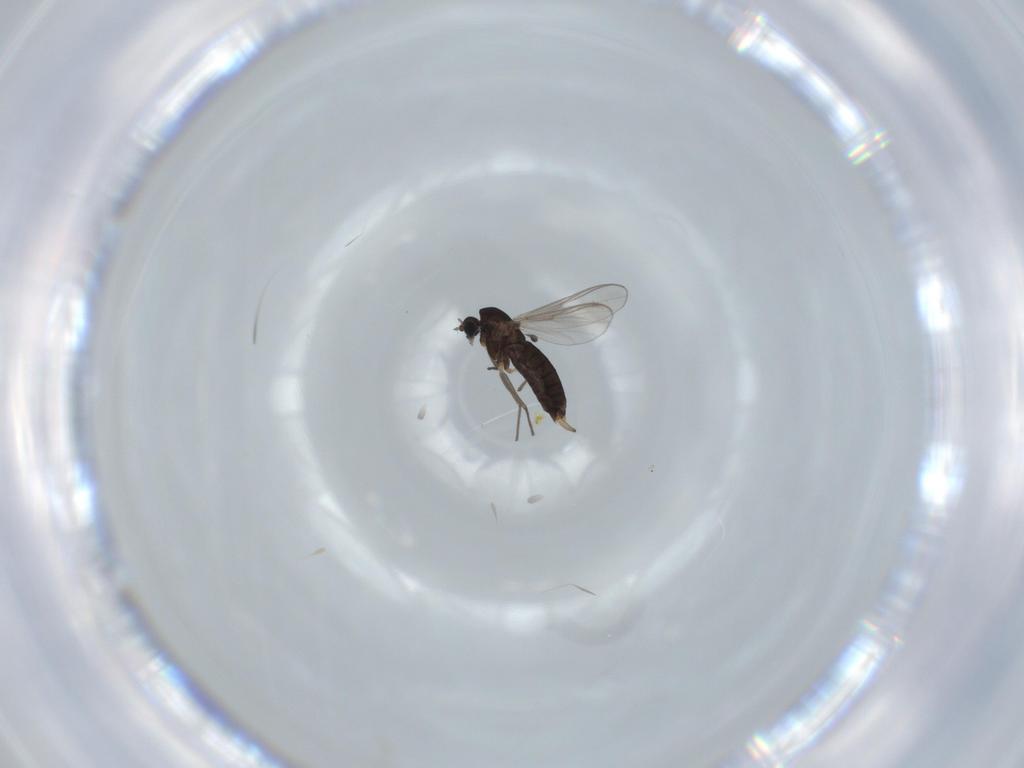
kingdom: Animalia
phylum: Arthropoda
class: Insecta
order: Diptera
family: Chironomidae
